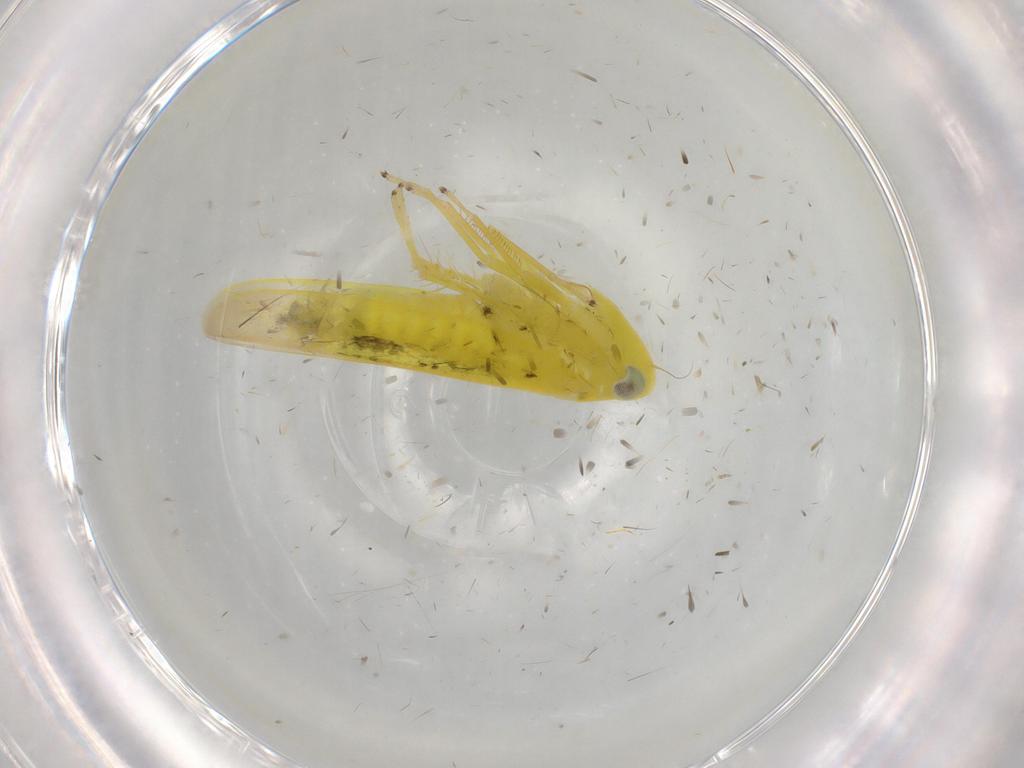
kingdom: Animalia
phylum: Arthropoda
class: Insecta
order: Hemiptera
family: Cicadellidae
